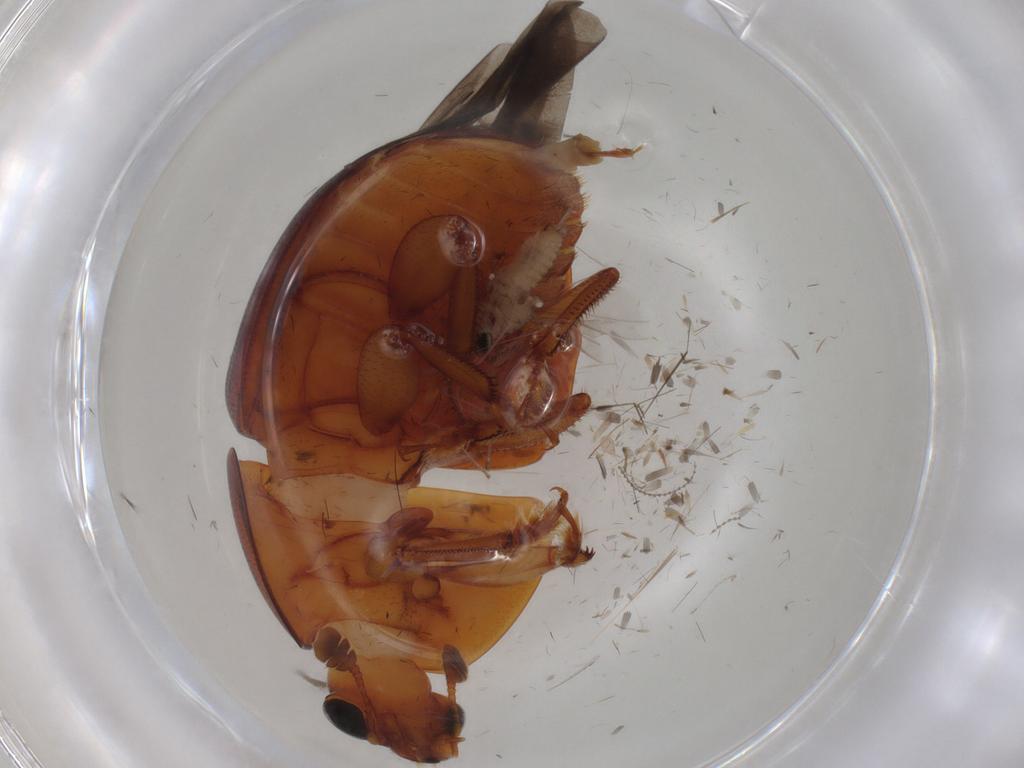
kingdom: Animalia
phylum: Arthropoda
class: Insecta
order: Coleoptera
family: Nitidulidae
